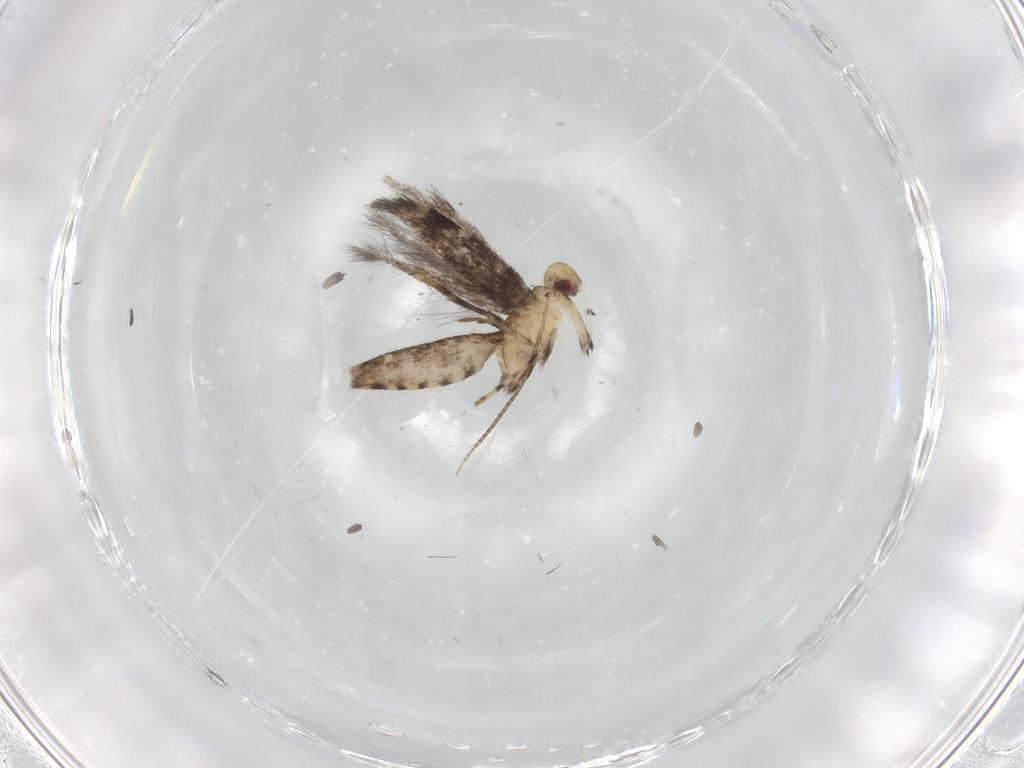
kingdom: Animalia
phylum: Arthropoda
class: Insecta
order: Lepidoptera
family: Gracillariidae
